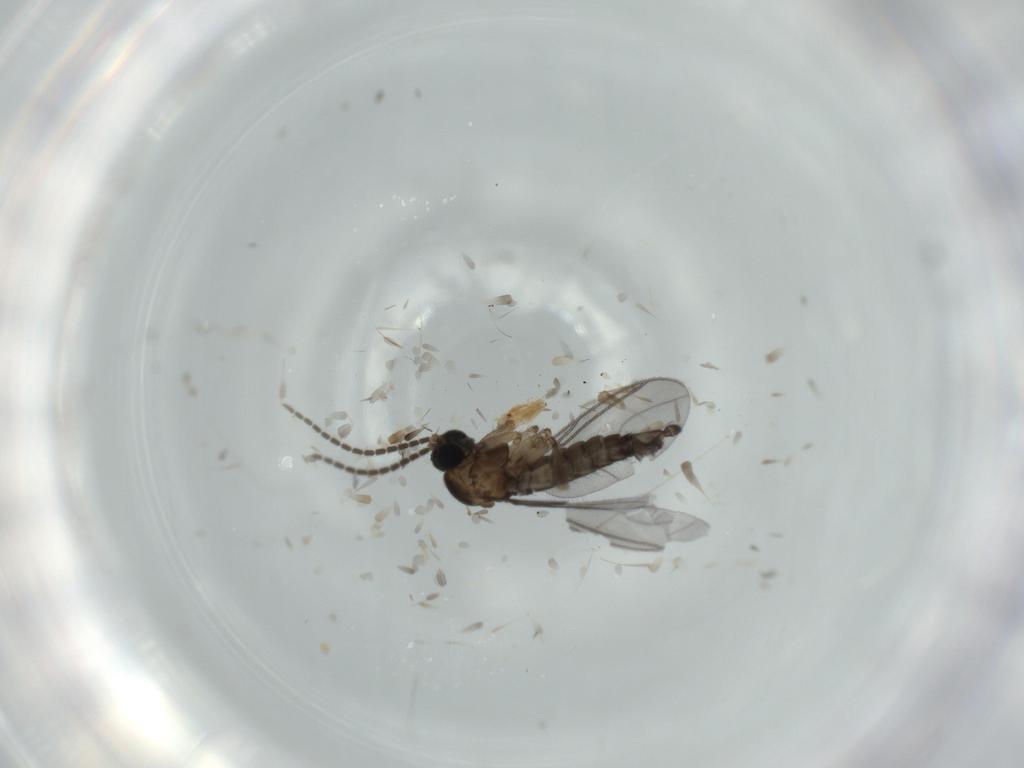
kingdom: Animalia
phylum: Arthropoda
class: Insecta
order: Diptera
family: Sciaridae
